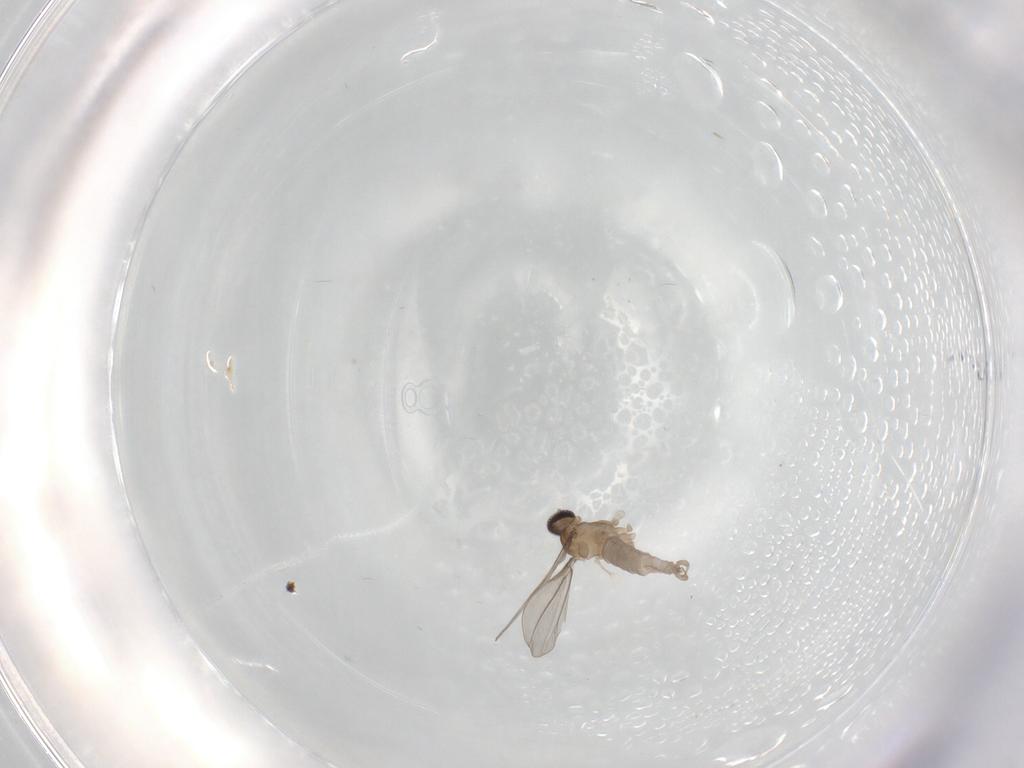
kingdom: Animalia
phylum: Arthropoda
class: Insecta
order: Diptera
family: Cecidomyiidae
